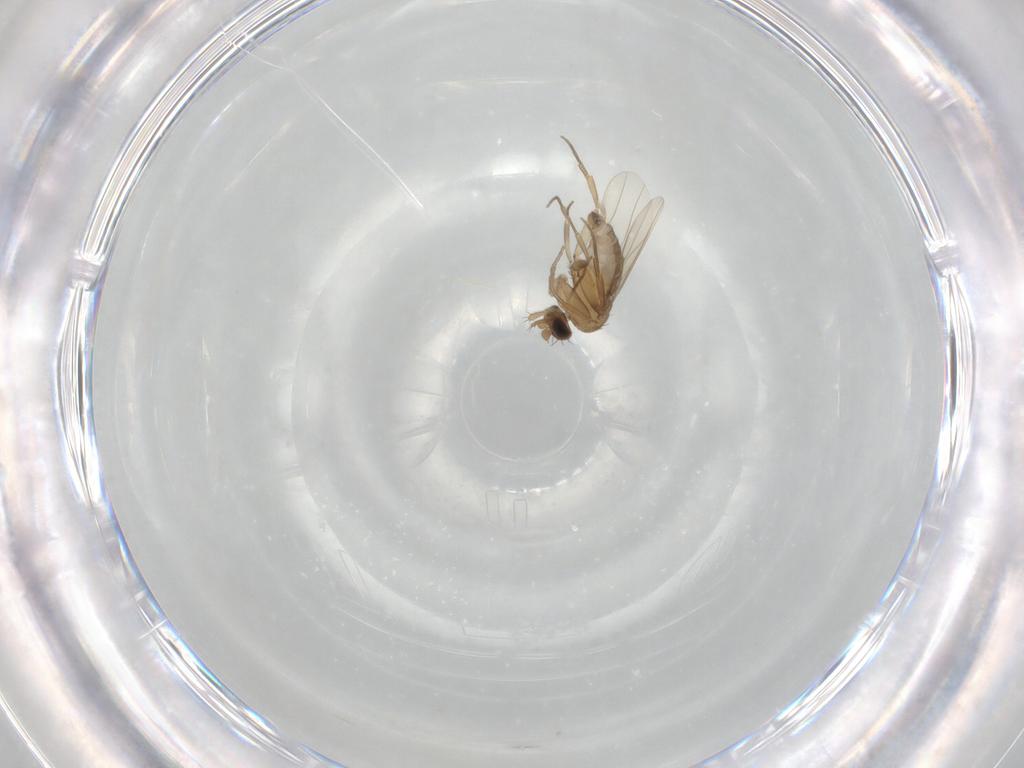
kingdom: Animalia
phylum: Arthropoda
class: Insecta
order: Diptera
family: Phoridae
